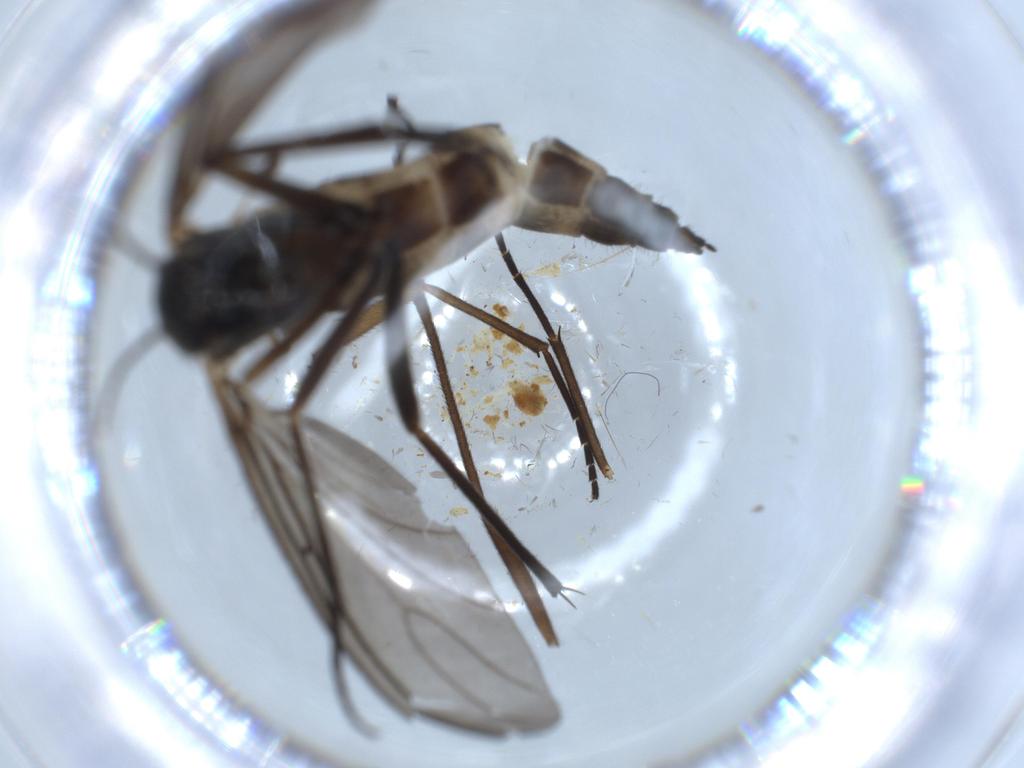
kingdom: Animalia
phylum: Arthropoda
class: Insecta
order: Diptera
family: Sciaridae
